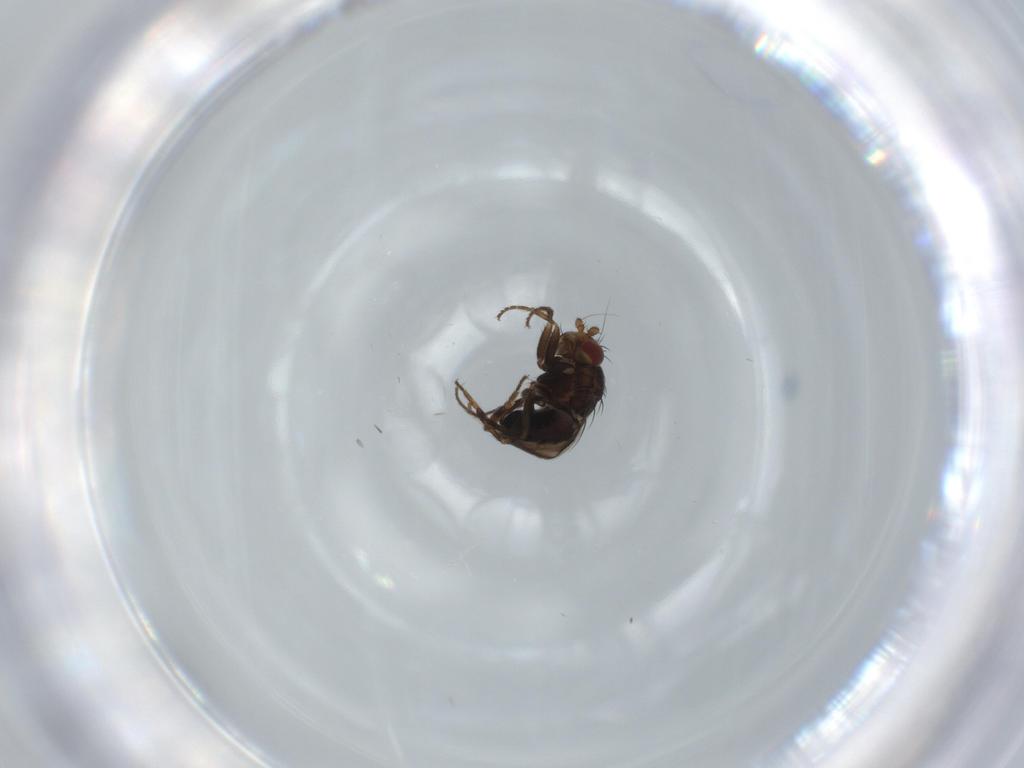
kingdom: Animalia
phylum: Arthropoda
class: Insecta
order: Diptera
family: Sphaeroceridae
